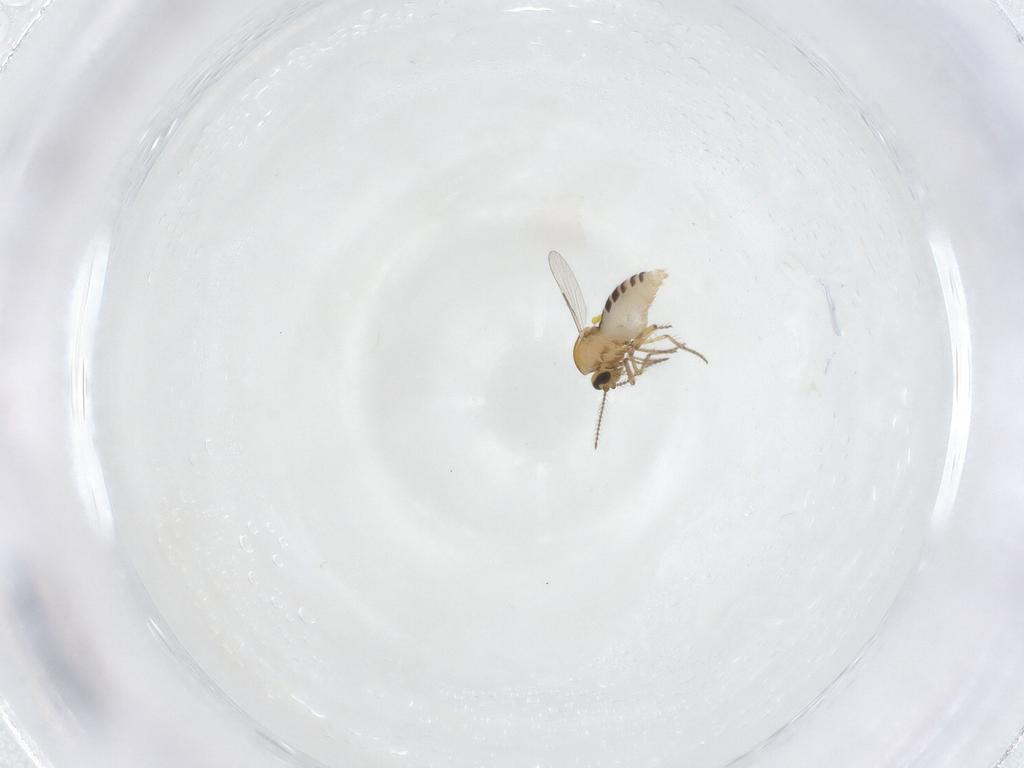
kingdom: Animalia
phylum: Arthropoda
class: Insecta
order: Diptera
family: Ceratopogonidae
